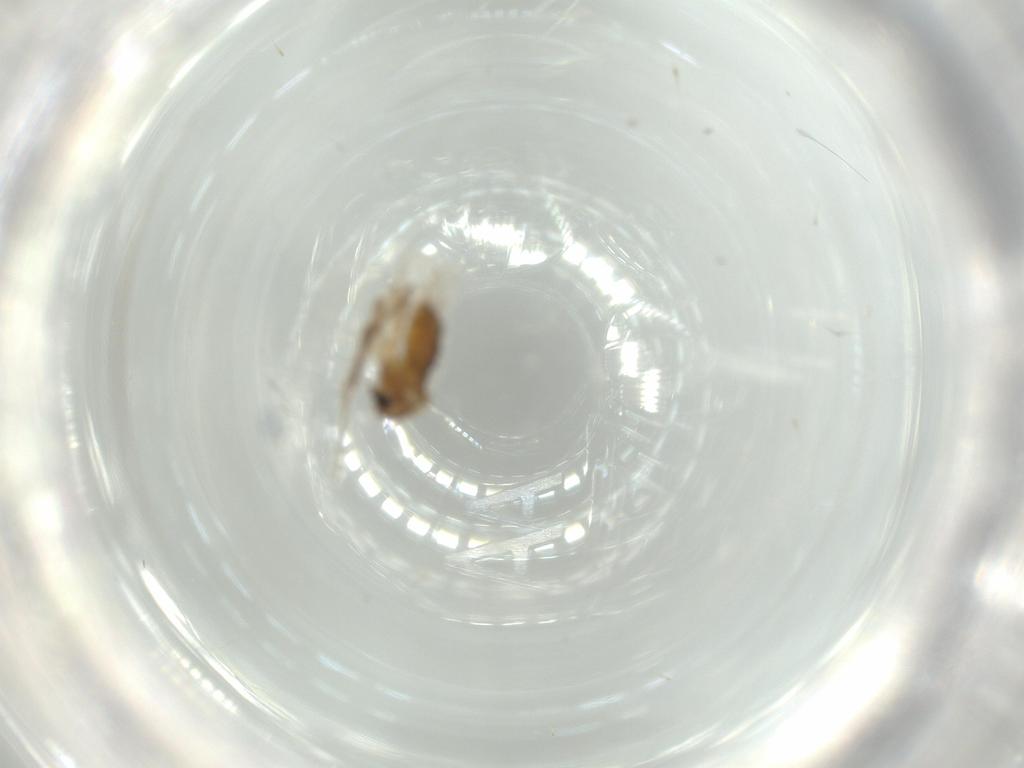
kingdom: Animalia
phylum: Arthropoda
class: Insecta
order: Diptera
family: Chironomidae
